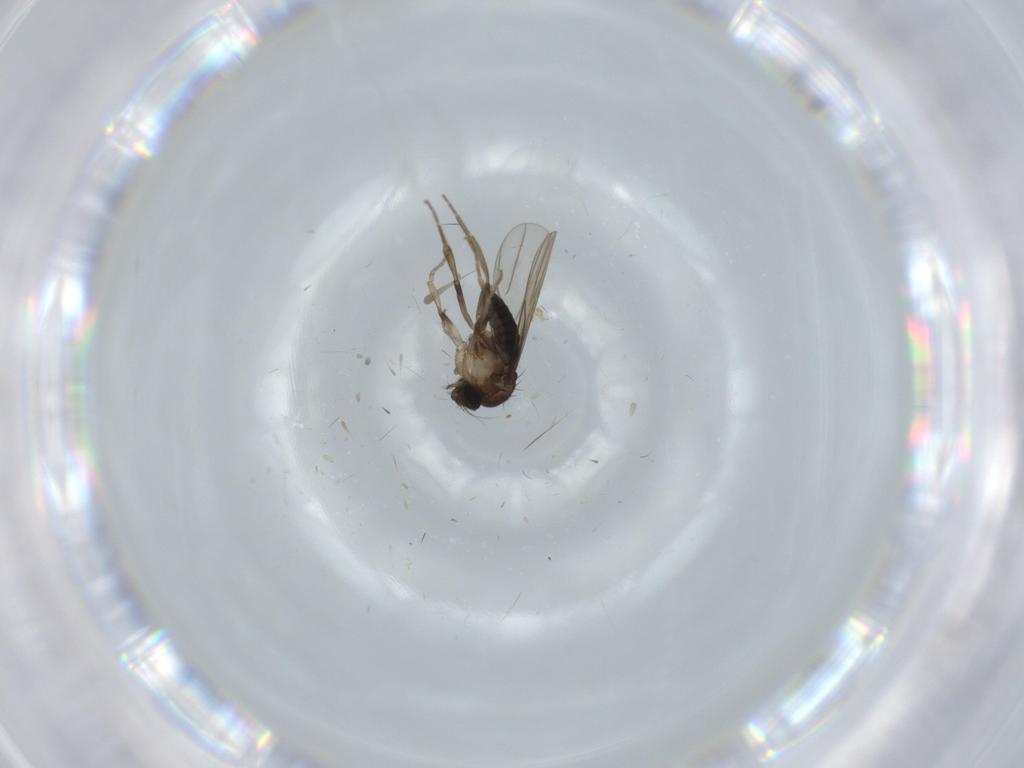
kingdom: Animalia
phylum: Arthropoda
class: Insecta
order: Diptera
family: Phoridae
